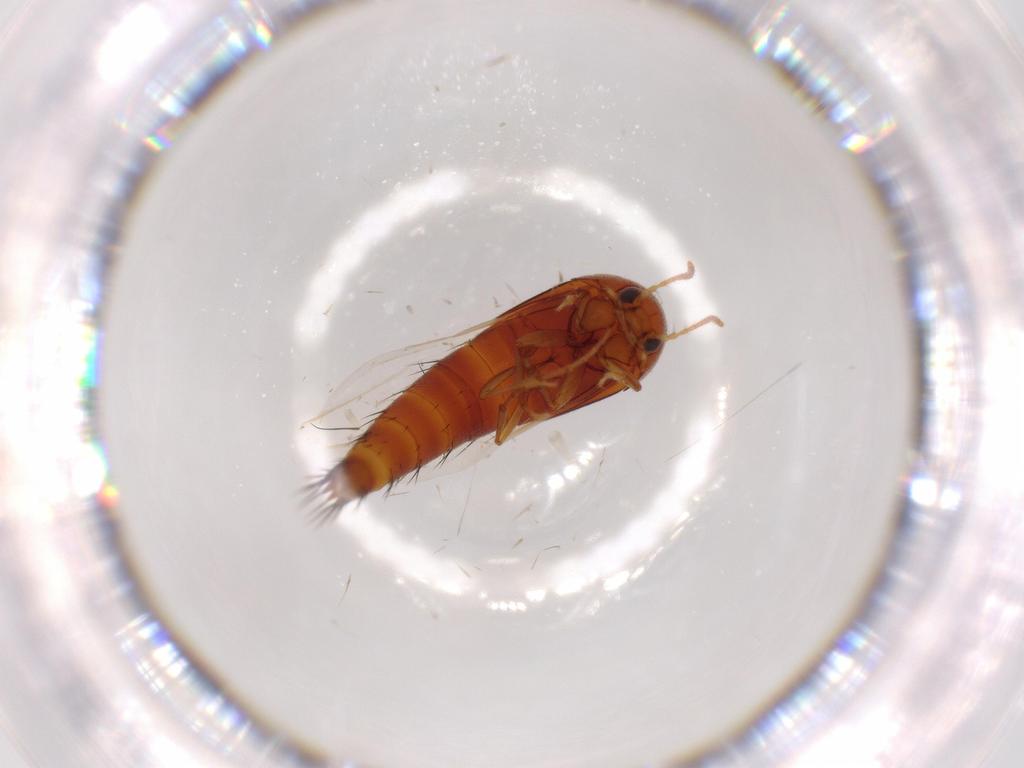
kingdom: Animalia
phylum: Arthropoda
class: Insecta
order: Coleoptera
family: Staphylinidae
